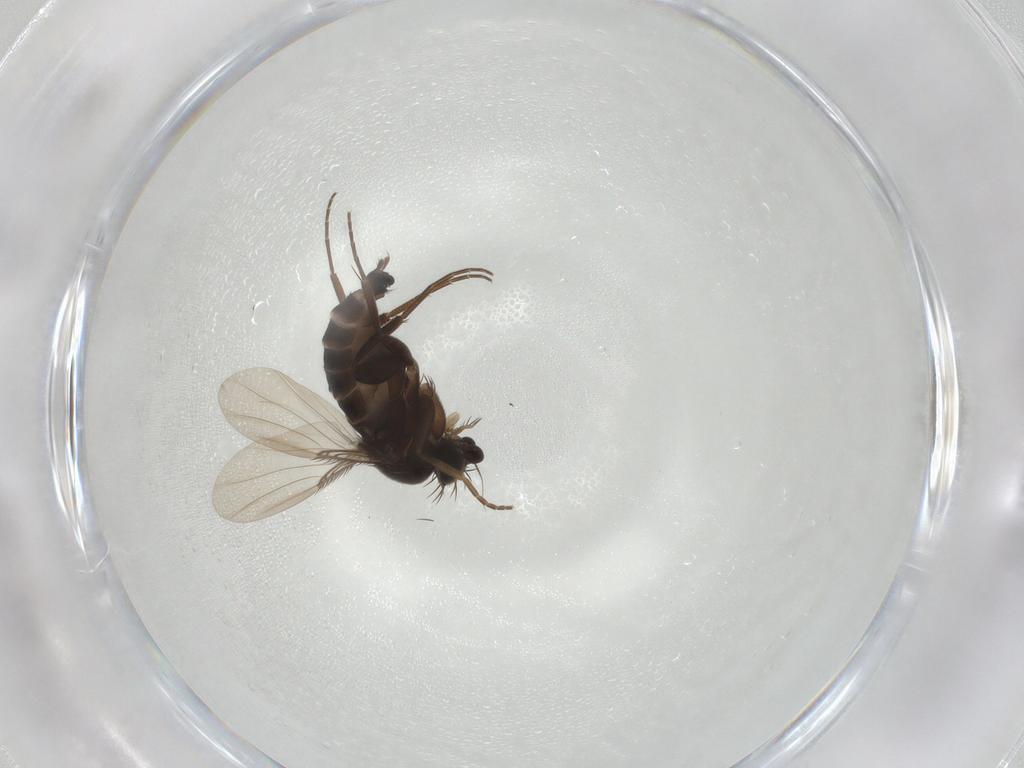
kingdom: Animalia
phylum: Arthropoda
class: Insecta
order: Diptera
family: Phoridae
